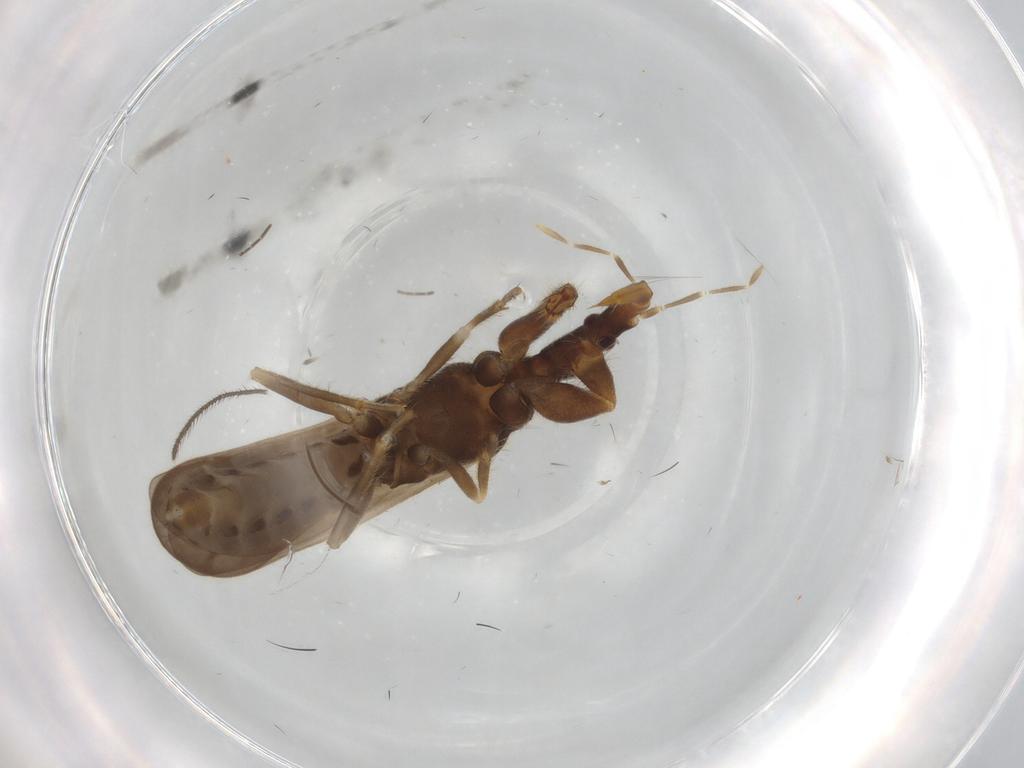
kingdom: Animalia
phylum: Arthropoda
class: Insecta
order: Hemiptera
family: Enicocephalidae
